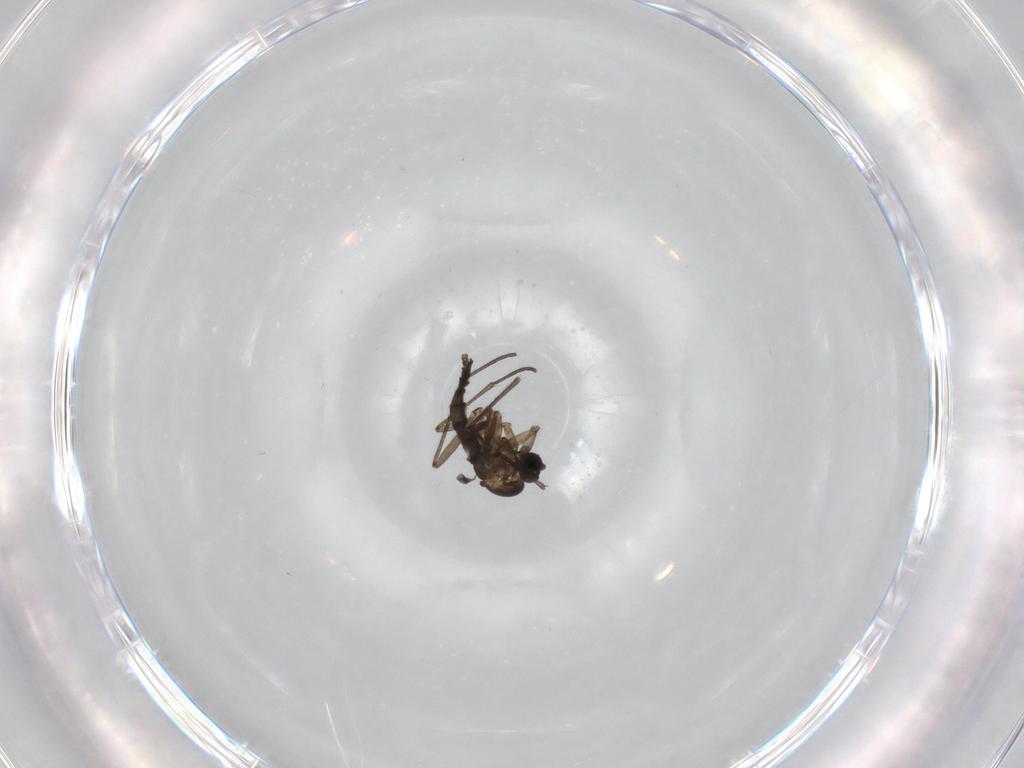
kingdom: Animalia
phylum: Arthropoda
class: Insecta
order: Diptera
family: Sciaridae
